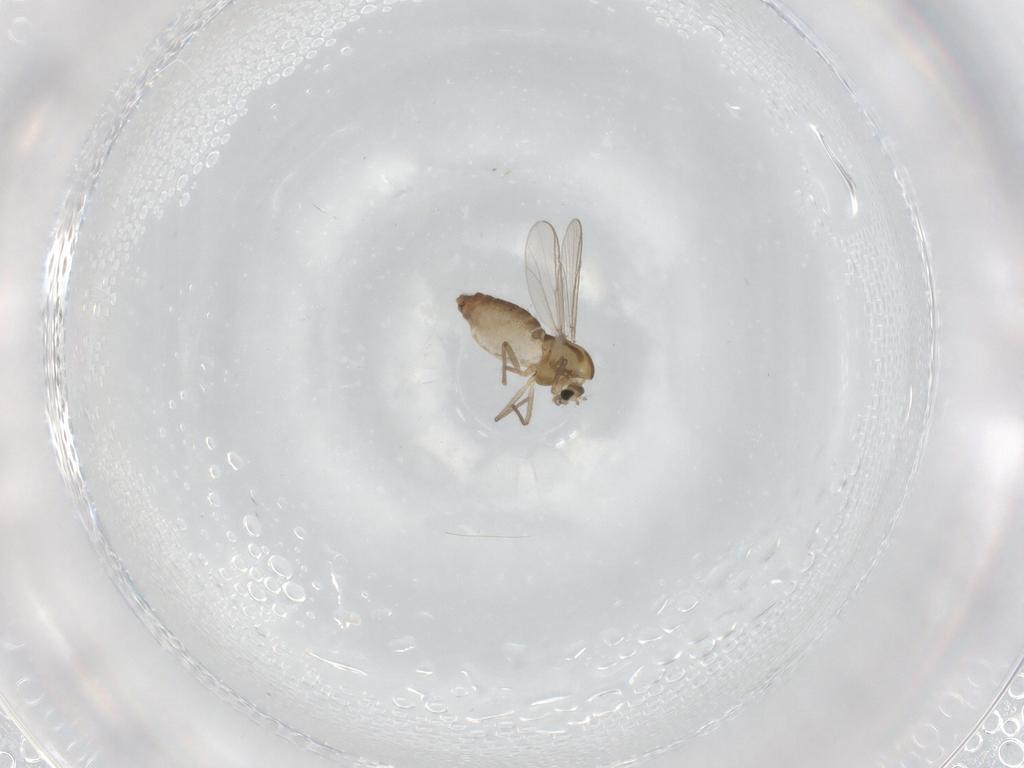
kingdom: Animalia
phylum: Arthropoda
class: Insecta
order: Diptera
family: Chironomidae
